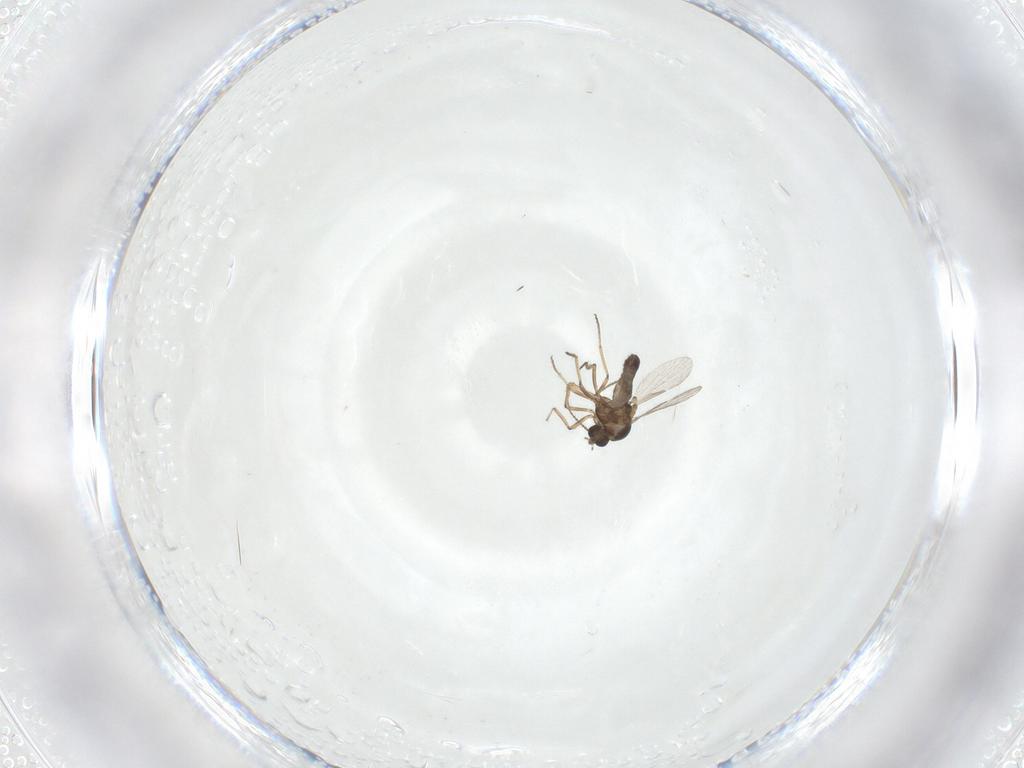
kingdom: Animalia
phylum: Arthropoda
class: Insecta
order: Diptera
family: Ceratopogonidae
